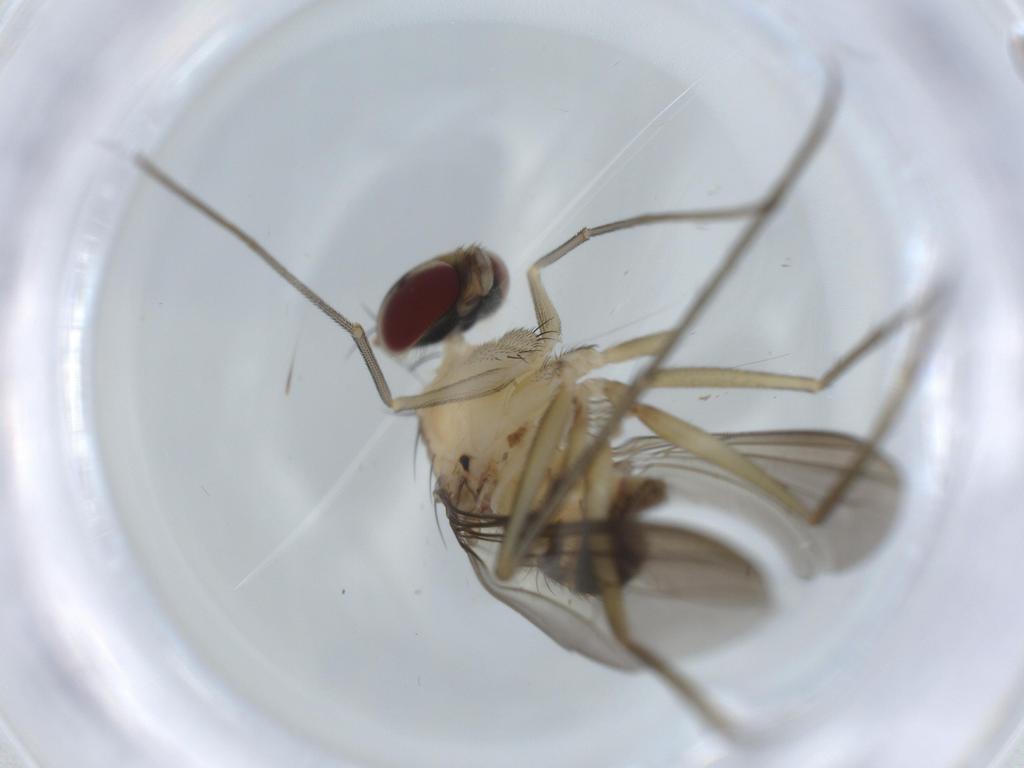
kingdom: Animalia
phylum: Arthropoda
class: Insecta
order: Diptera
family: Dolichopodidae
